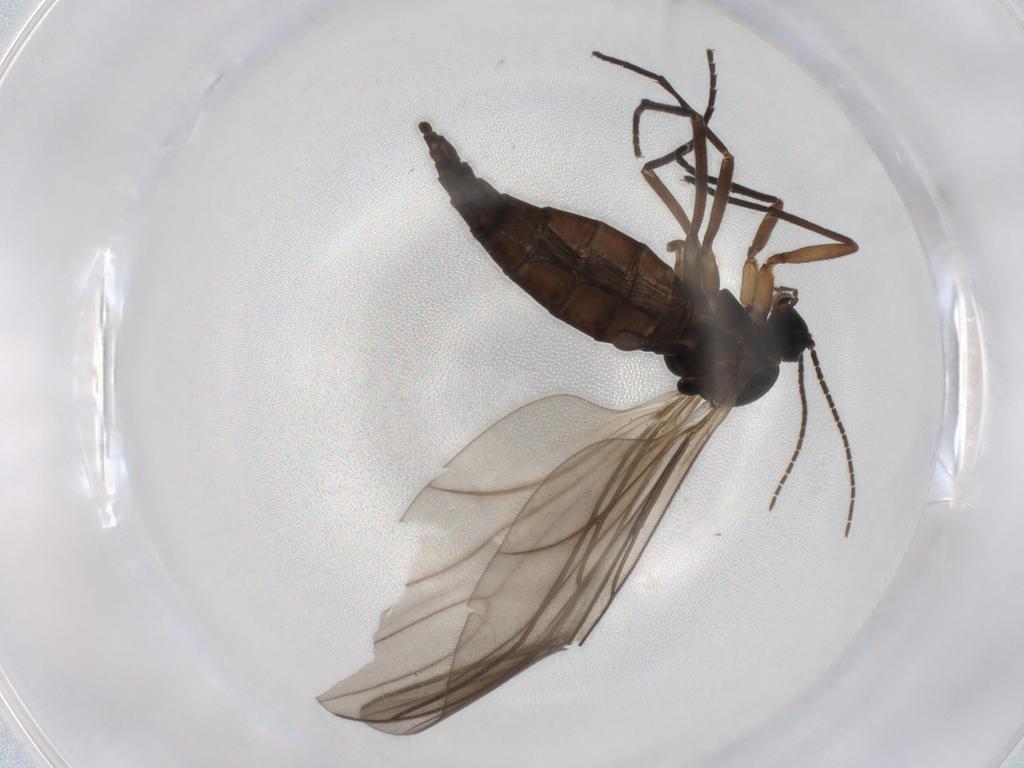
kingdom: Animalia
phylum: Arthropoda
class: Insecta
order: Diptera
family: Sciaridae
